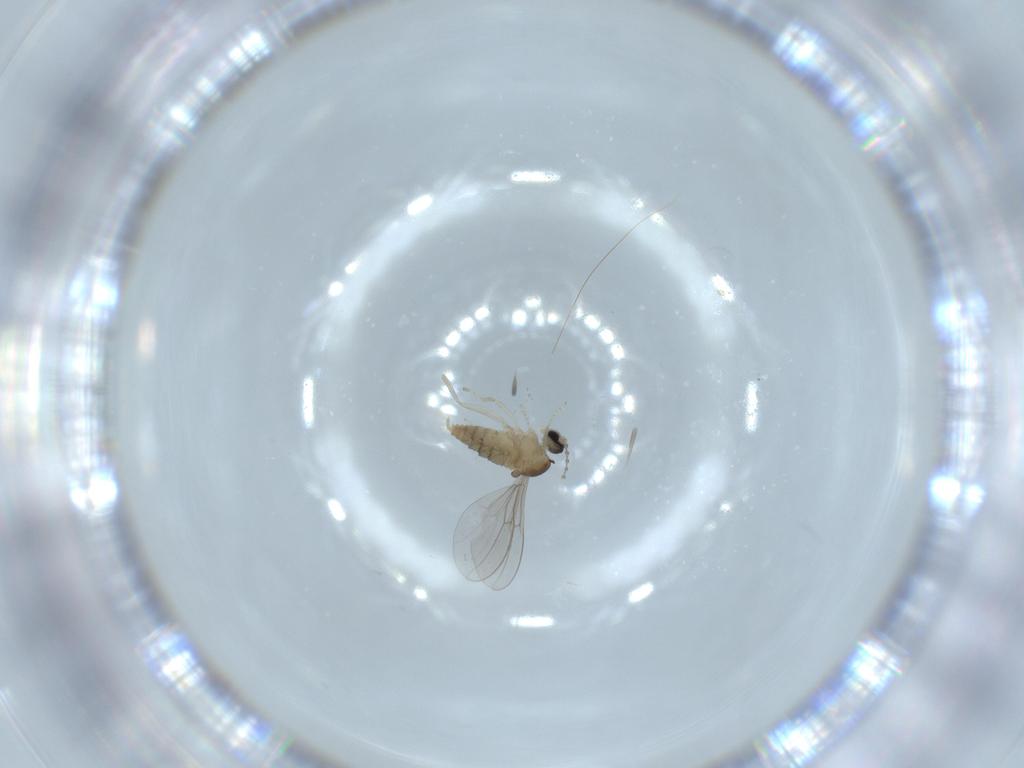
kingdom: Animalia
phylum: Arthropoda
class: Insecta
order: Diptera
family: Cecidomyiidae
